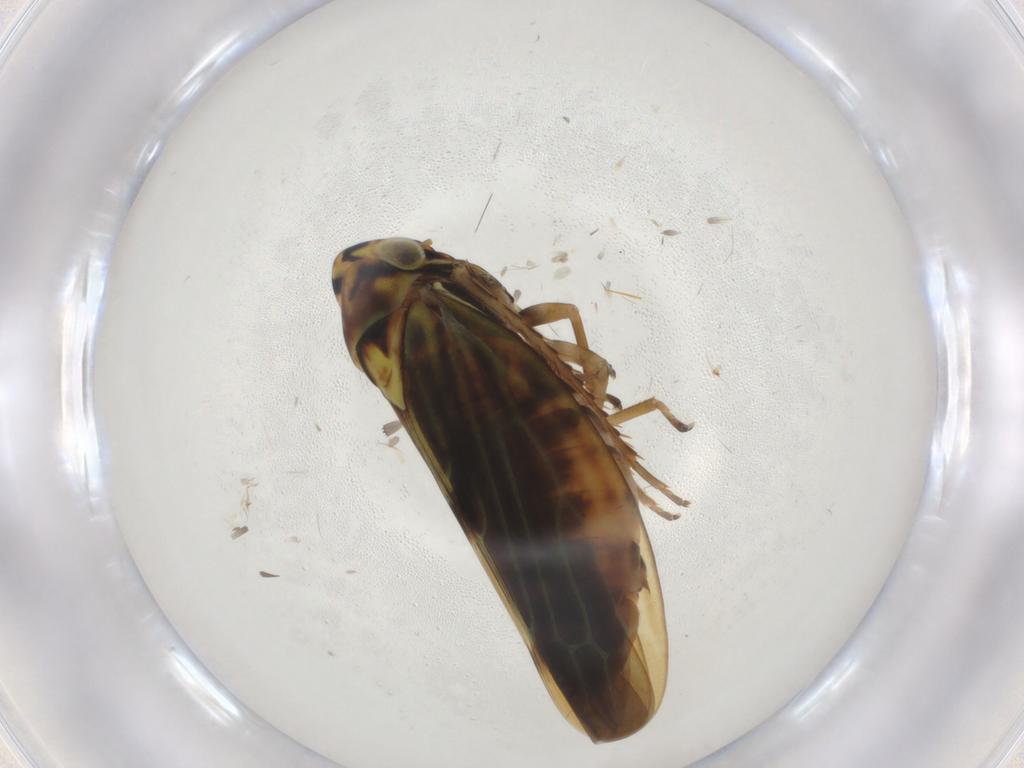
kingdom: Animalia
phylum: Arthropoda
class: Insecta
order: Hemiptera
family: Cicadellidae
